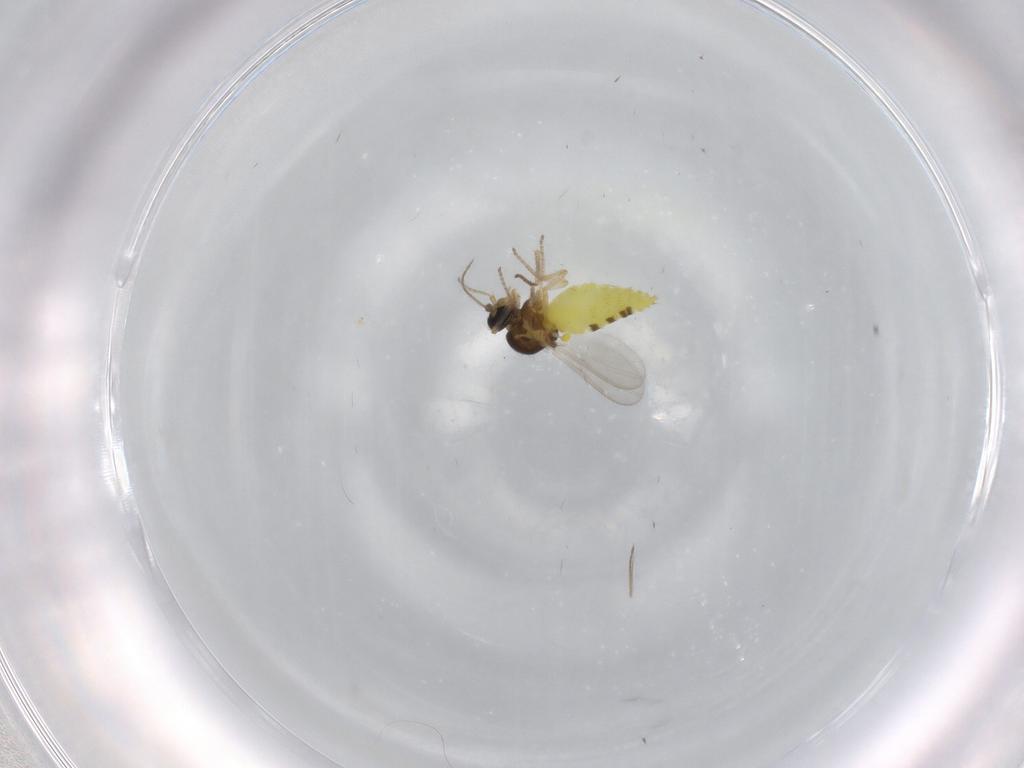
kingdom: Animalia
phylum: Arthropoda
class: Insecta
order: Diptera
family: Ceratopogonidae
